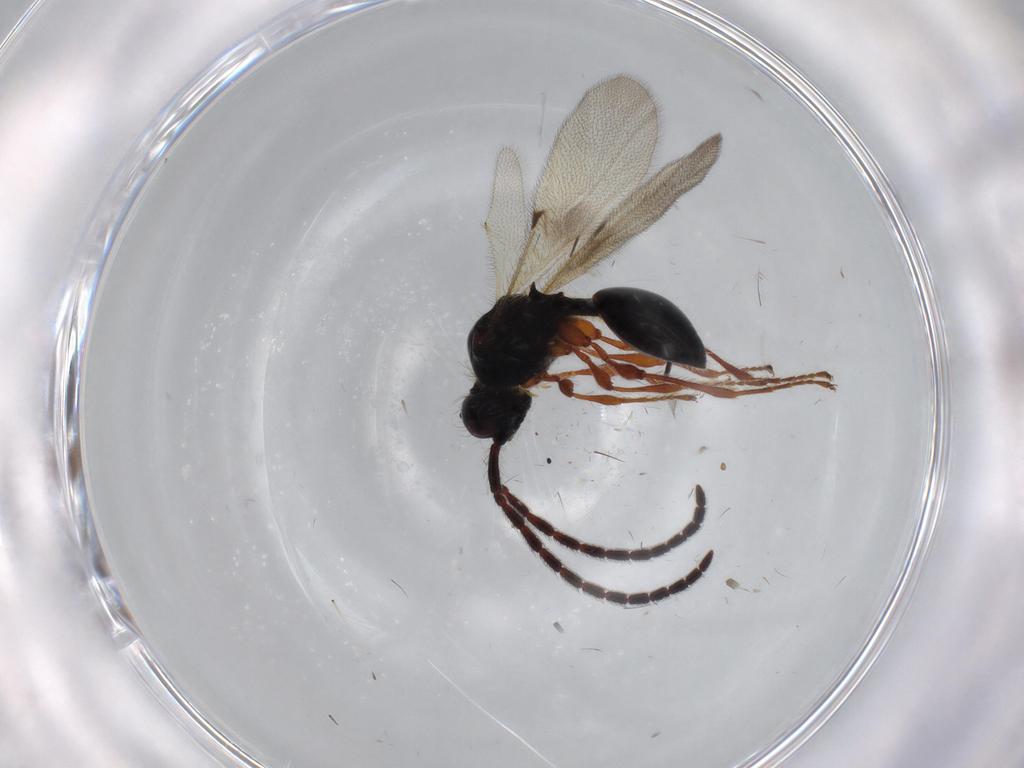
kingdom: Animalia
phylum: Arthropoda
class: Insecta
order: Hymenoptera
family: Diapriidae
